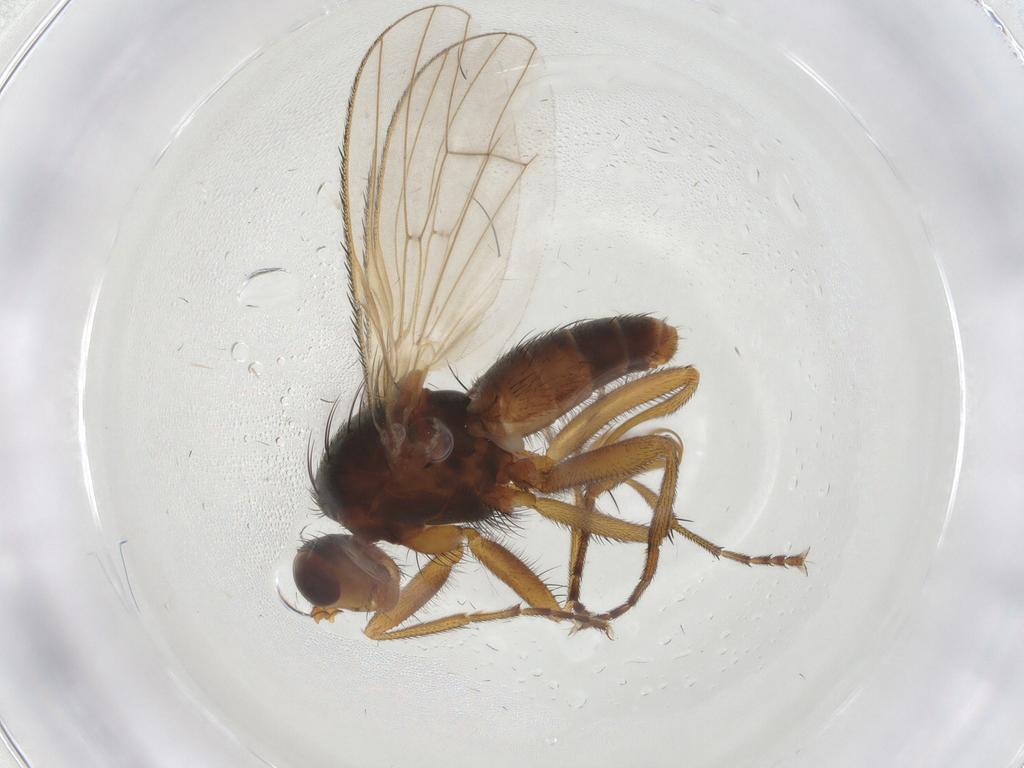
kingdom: Animalia
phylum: Arthropoda
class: Insecta
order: Diptera
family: Heleomyzidae
